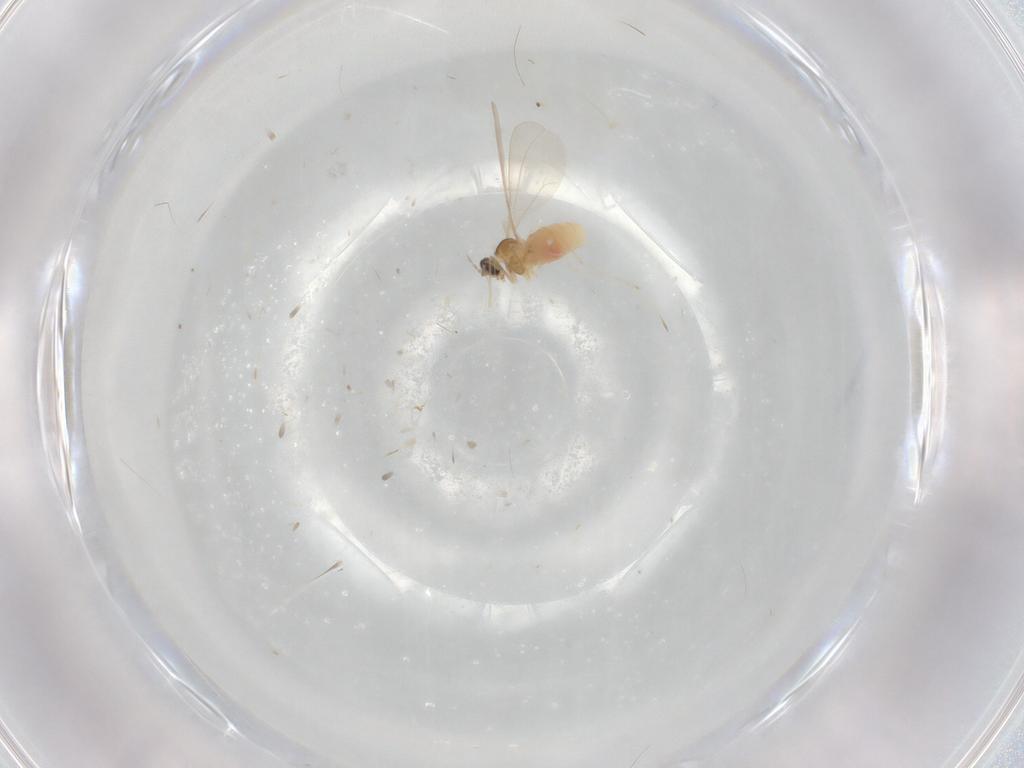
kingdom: Animalia
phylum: Arthropoda
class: Insecta
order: Diptera
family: Cecidomyiidae
